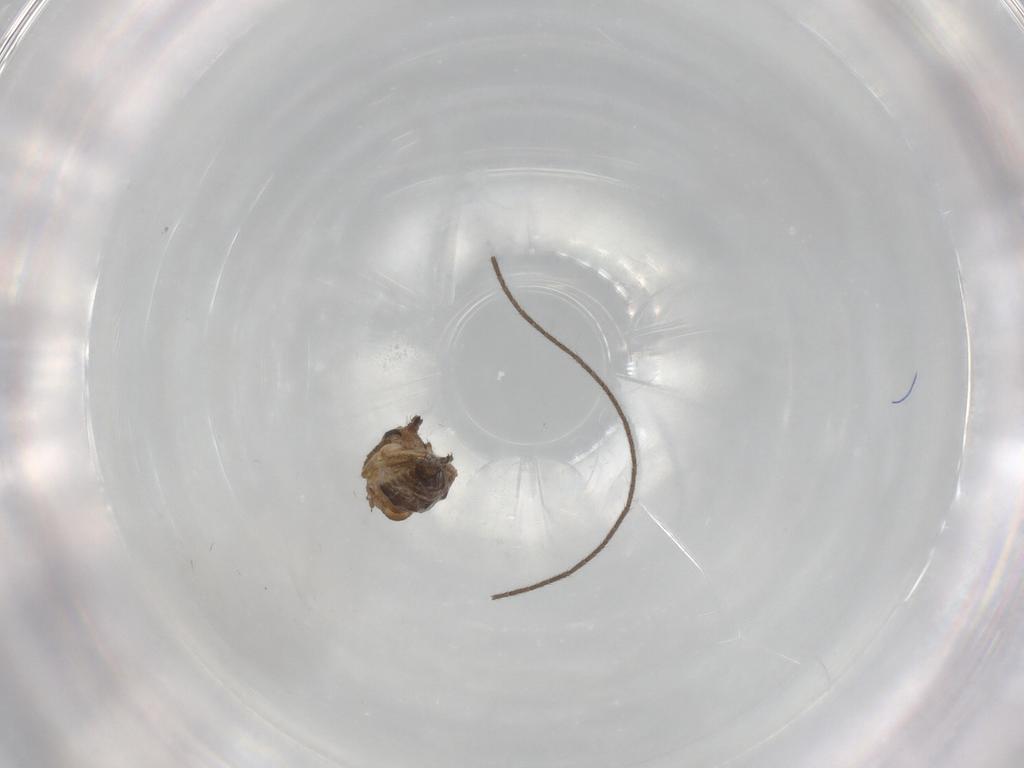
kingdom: Animalia
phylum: Arthropoda
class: Insecta
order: Diptera
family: Ceratopogonidae
